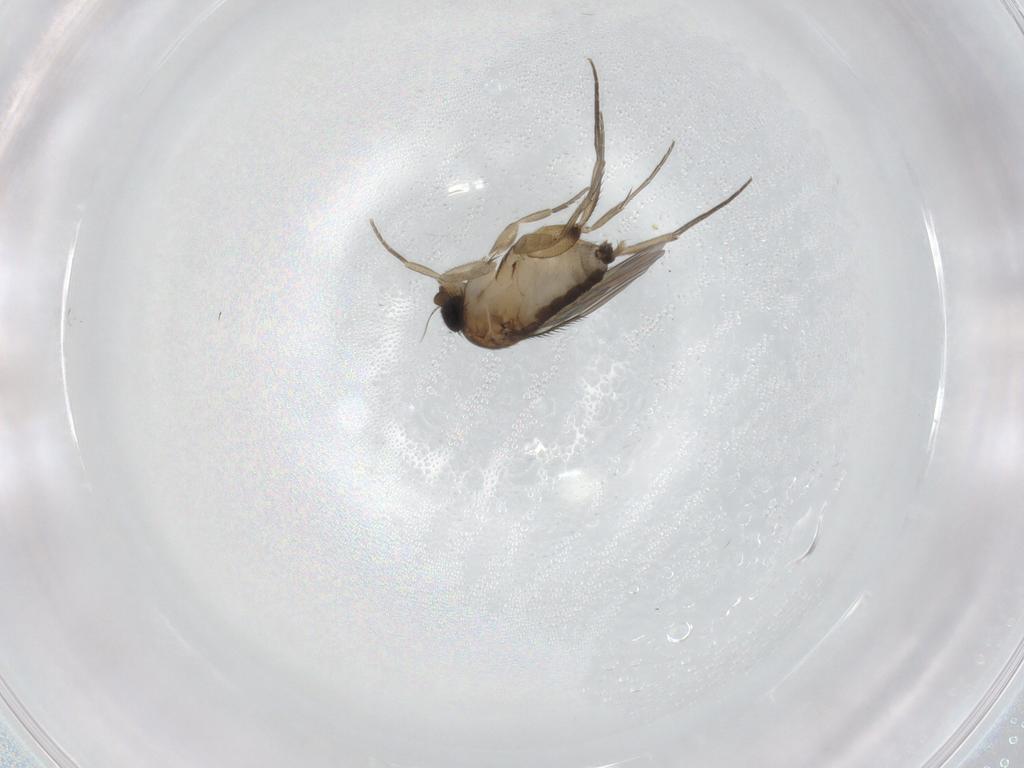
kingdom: Animalia
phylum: Arthropoda
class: Insecta
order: Diptera
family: Phoridae
